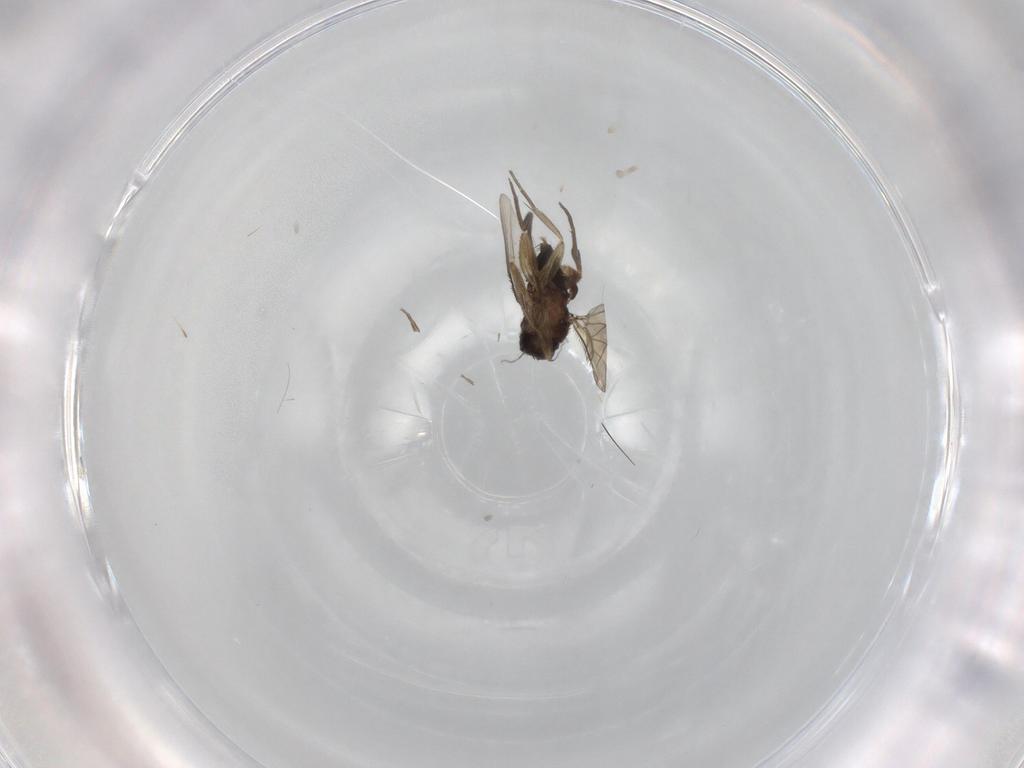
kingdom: Animalia
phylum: Arthropoda
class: Insecta
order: Diptera
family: Phoridae
